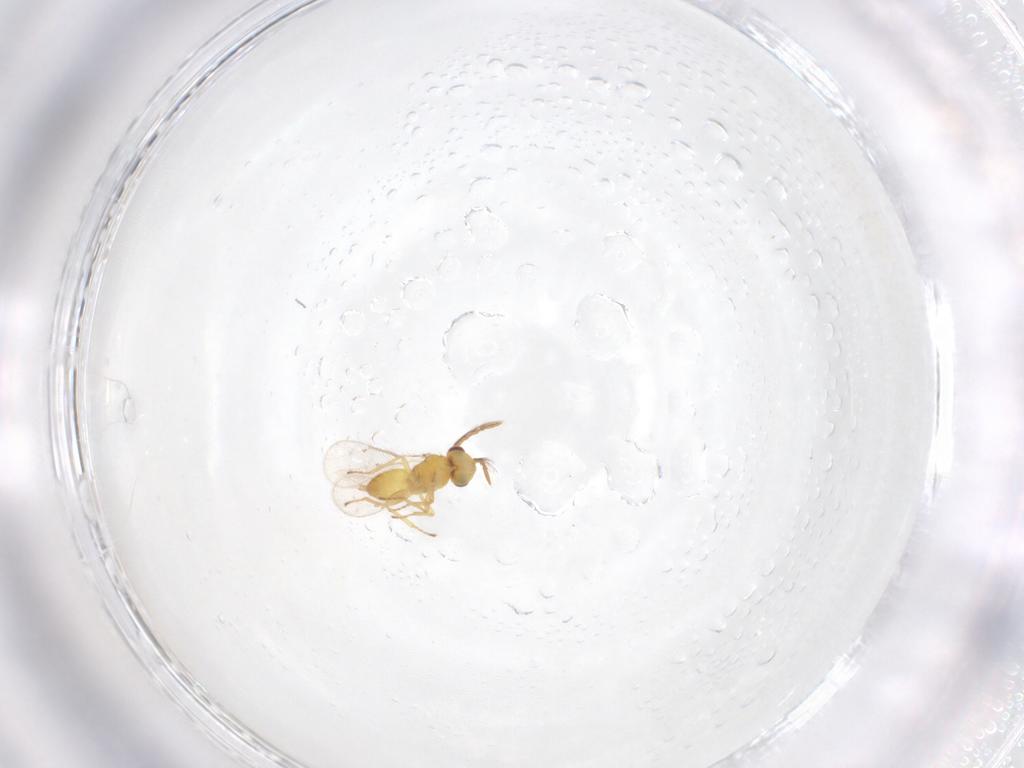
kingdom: Animalia
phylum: Arthropoda
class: Insecta
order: Hymenoptera
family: Eulophidae
